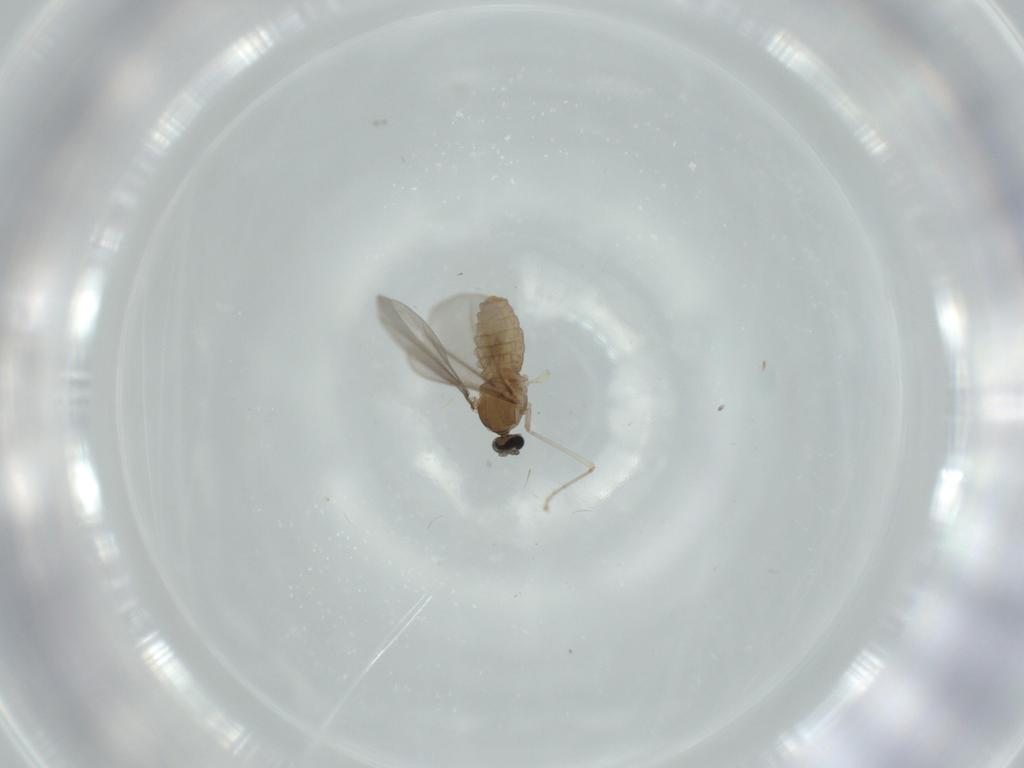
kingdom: Animalia
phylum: Arthropoda
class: Insecta
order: Diptera
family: Cecidomyiidae
